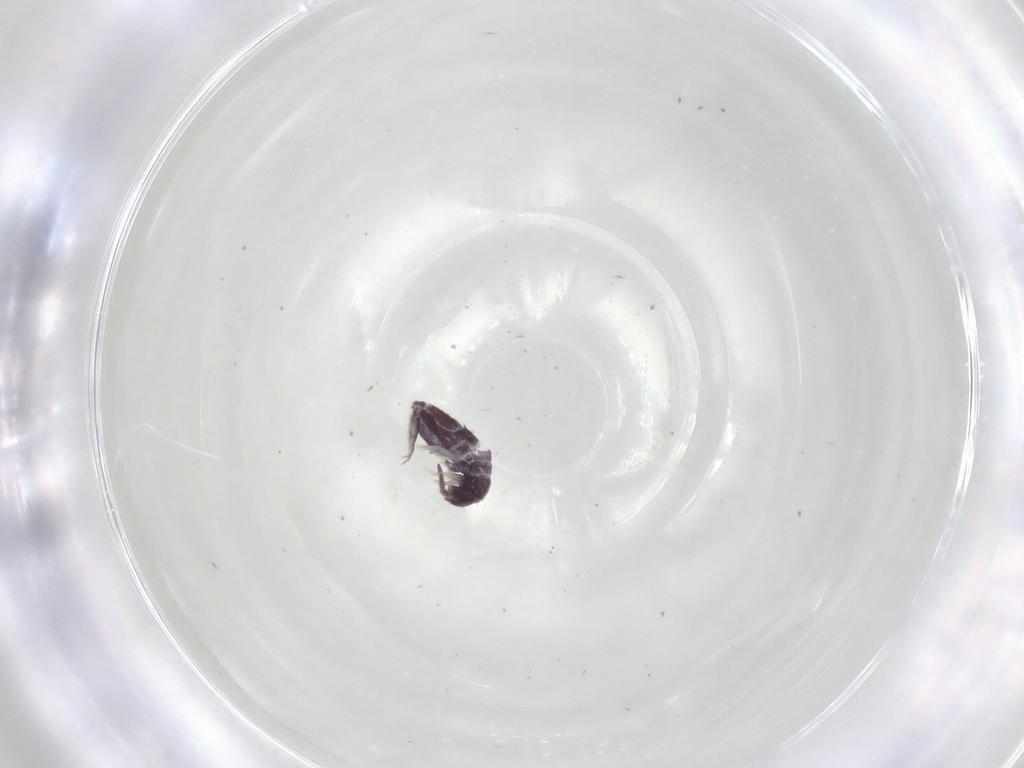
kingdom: Animalia
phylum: Arthropoda
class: Collembola
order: Entomobryomorpha
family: Entomobryidae
